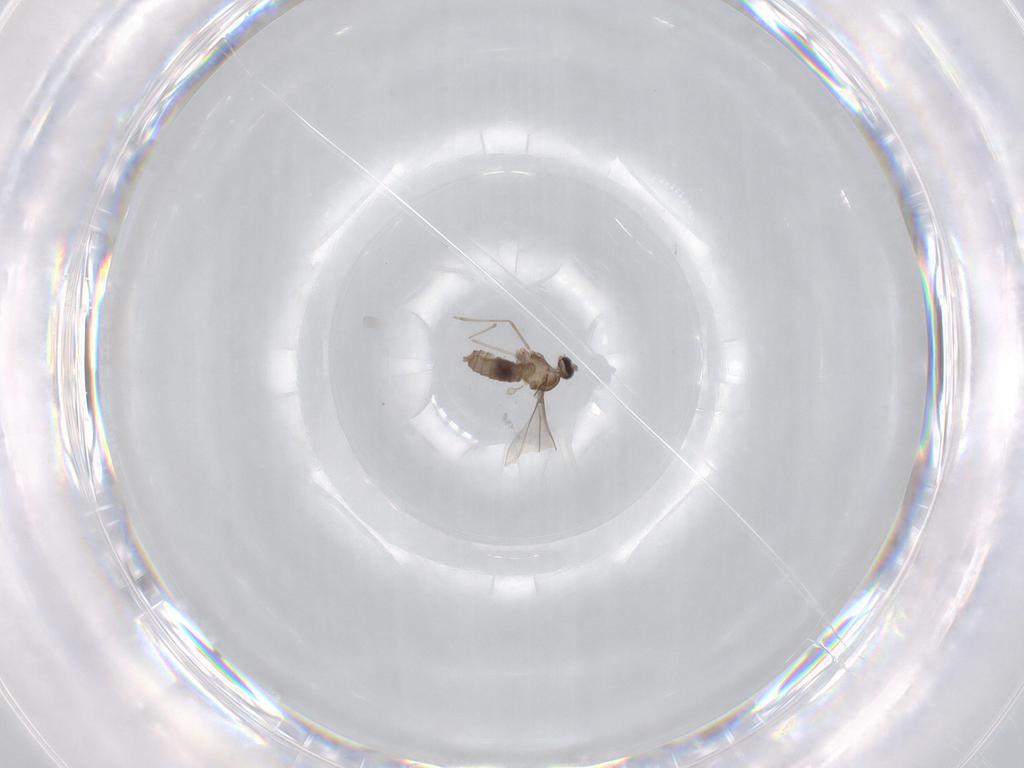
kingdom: Animalia
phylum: Arthropoda
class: Insecta
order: Diptera
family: Cecidomyiidae
